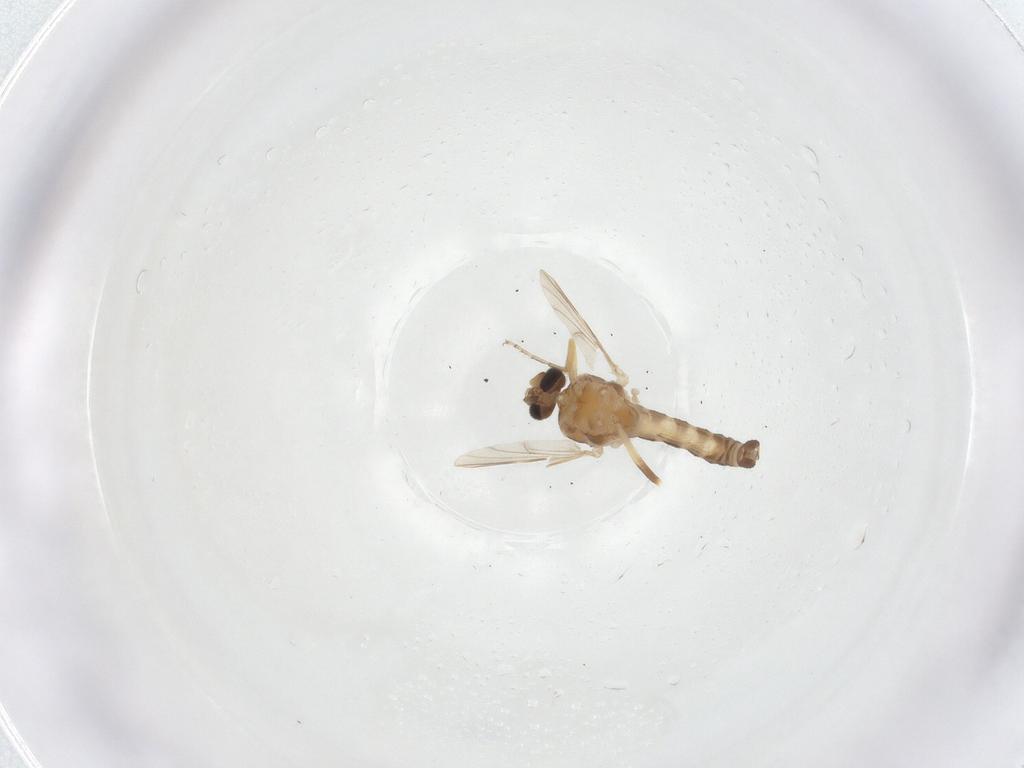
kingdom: Animalia
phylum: Arthropoda
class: Insecta
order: Diptera
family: Ceratopogonidae
